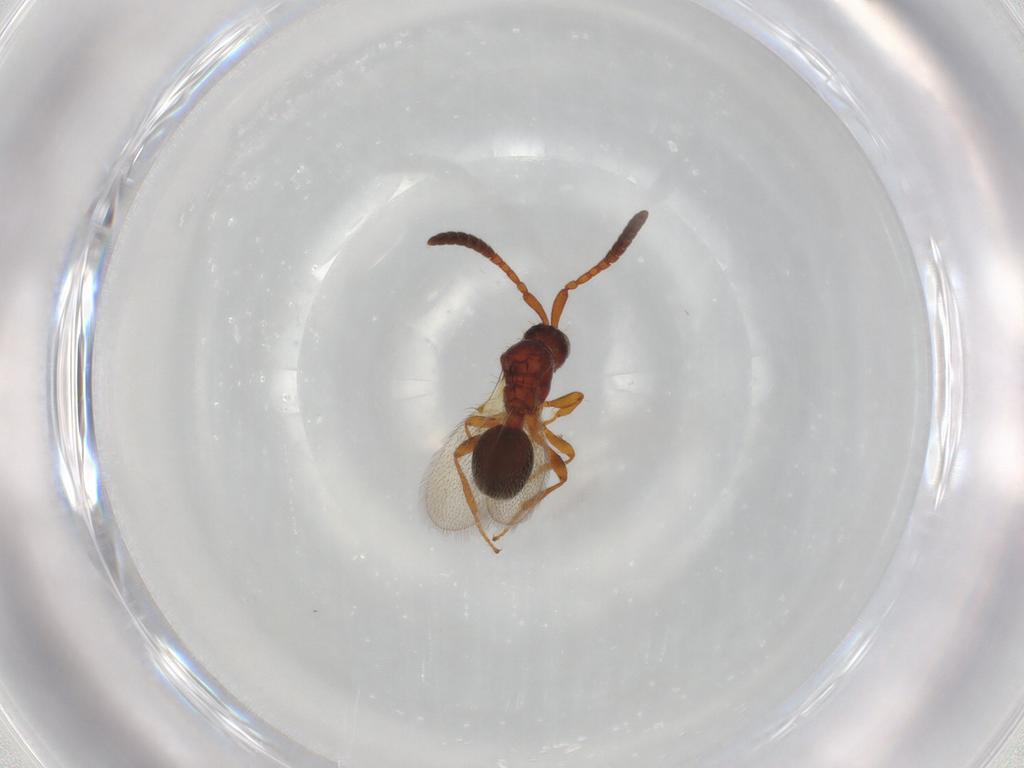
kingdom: Animalia
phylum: Arthropoda
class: Insecta
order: Hymenoptera
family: Diapriidae
